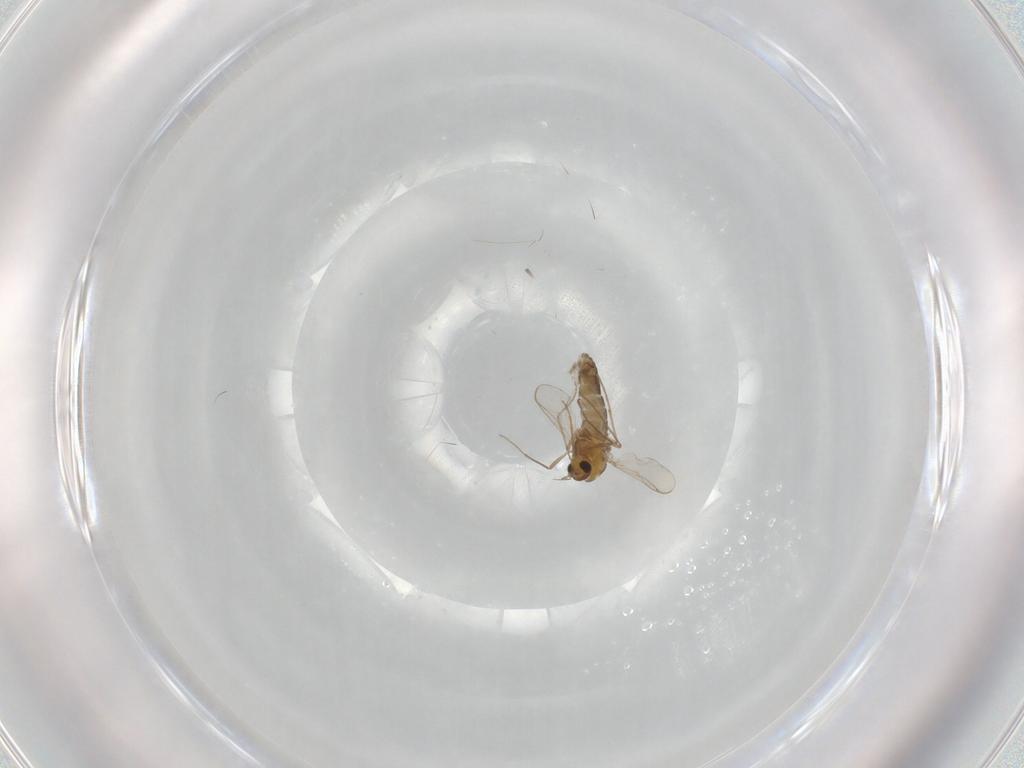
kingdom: Animalia
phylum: Arthropoda
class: Insecta
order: Diptera
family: Chironomidae
